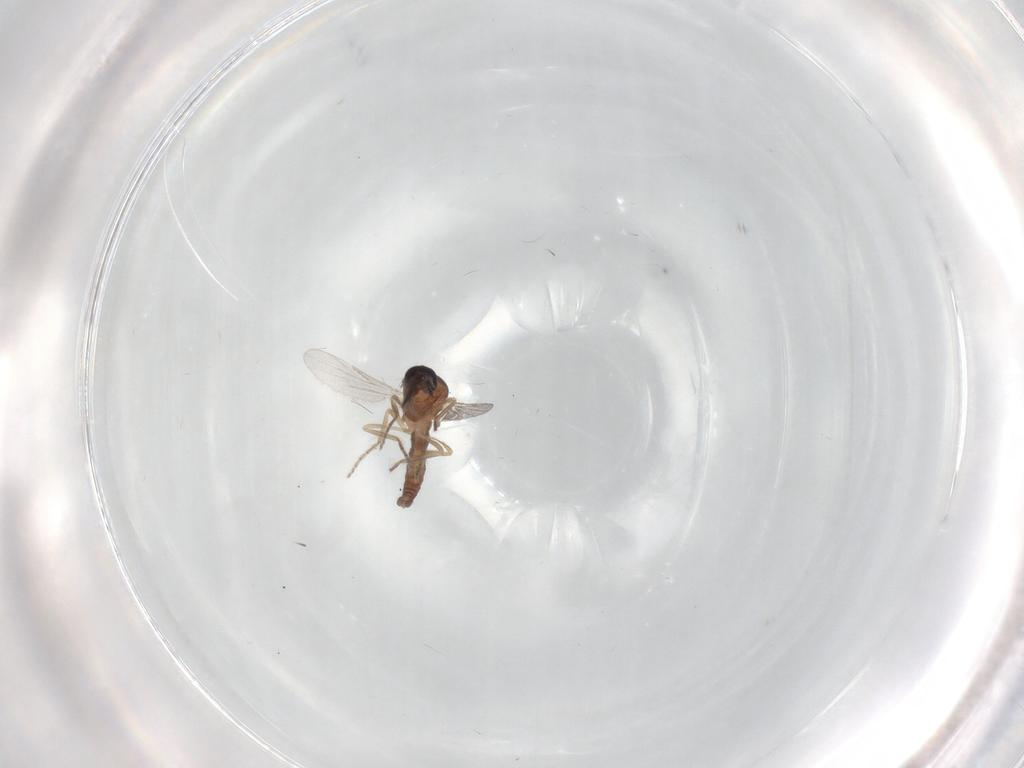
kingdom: Animalia
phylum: Arthropoda
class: Insecta
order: Diptera
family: Ceratopogonidae
